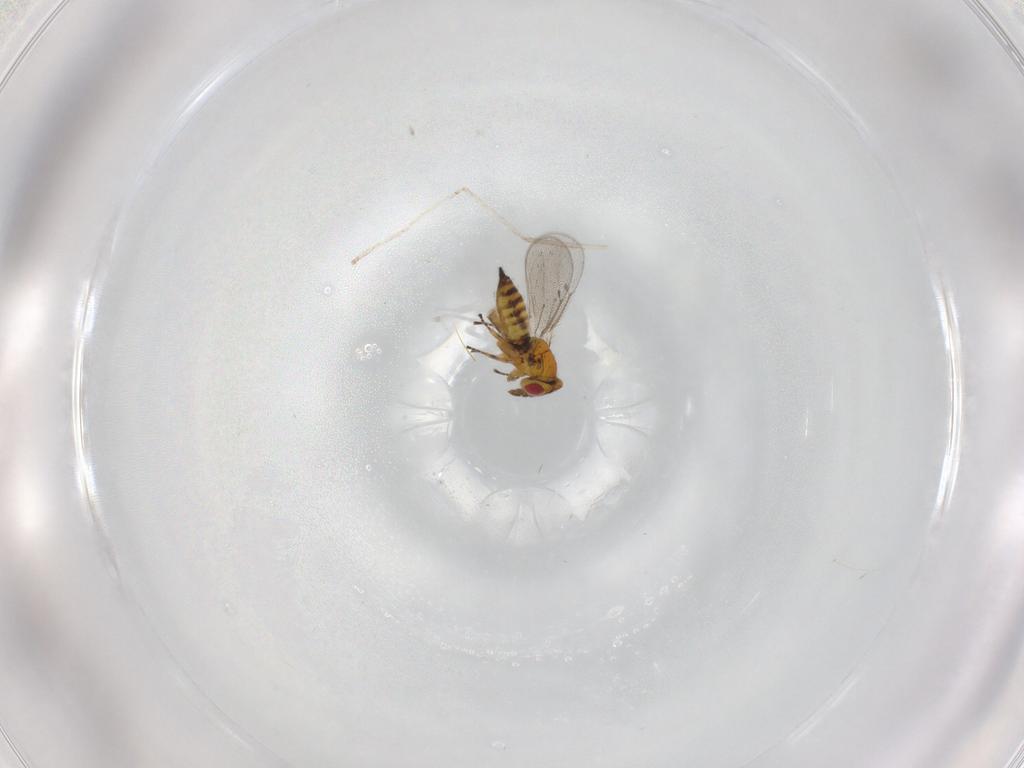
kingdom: Animalia
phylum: Arthropoda
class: Insecta
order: Hymenoptera
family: Eulophidae
